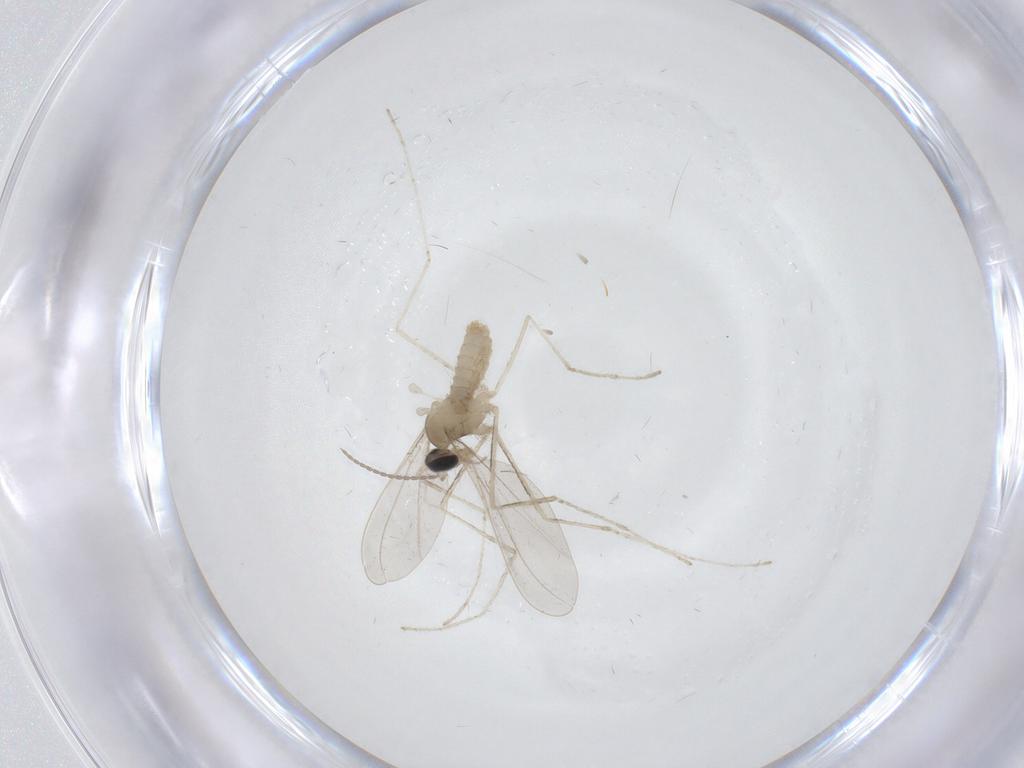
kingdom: Animalia
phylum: Arthropoda
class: Insecta
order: Diptera
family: Cecidomyiidae
